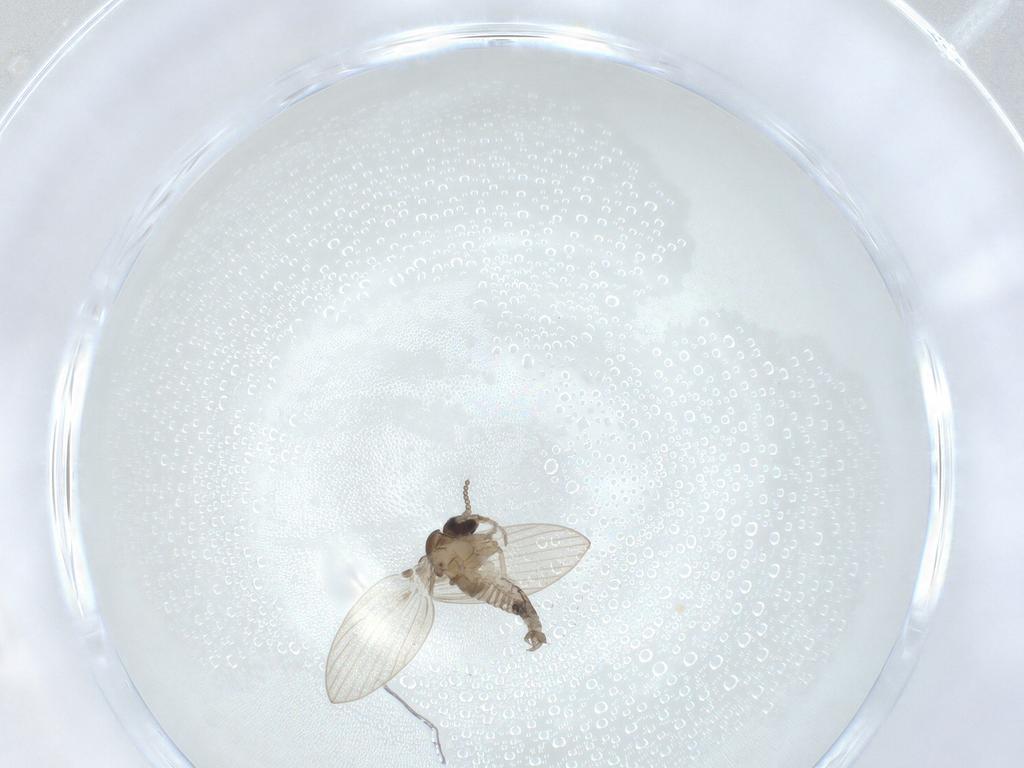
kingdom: Animalia
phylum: Arthropoda
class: Insecta
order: Diptera
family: Psychodidae
